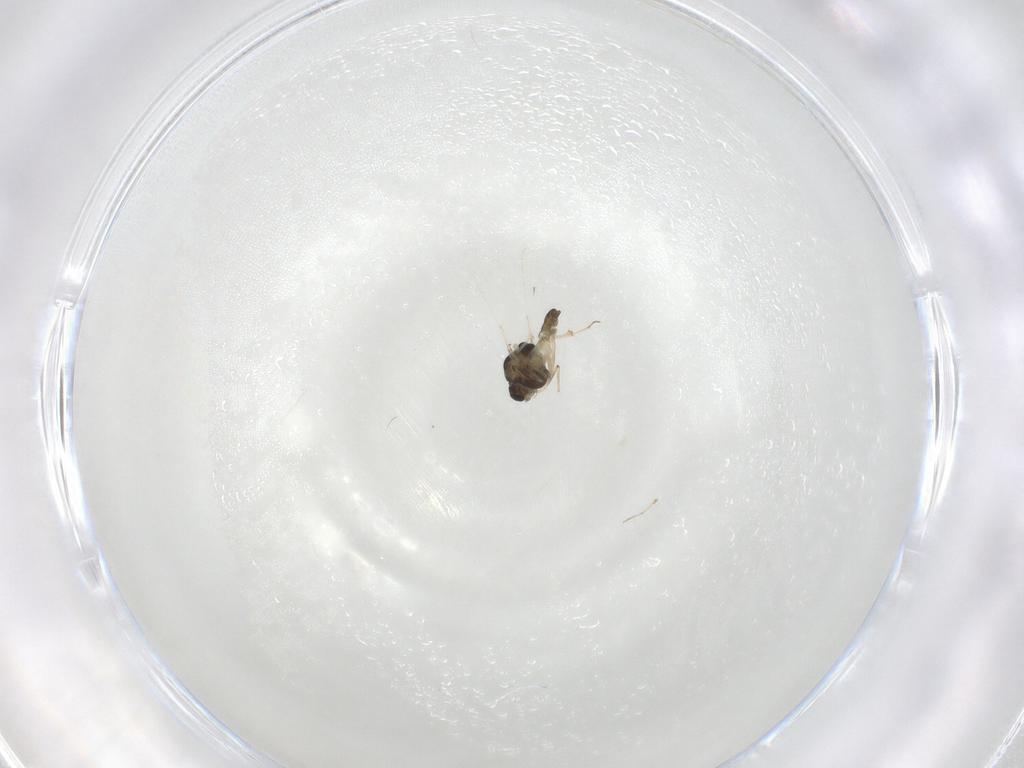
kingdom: Animalia
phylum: Arthropoda
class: Insecta
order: Diptera
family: Chironomidae
